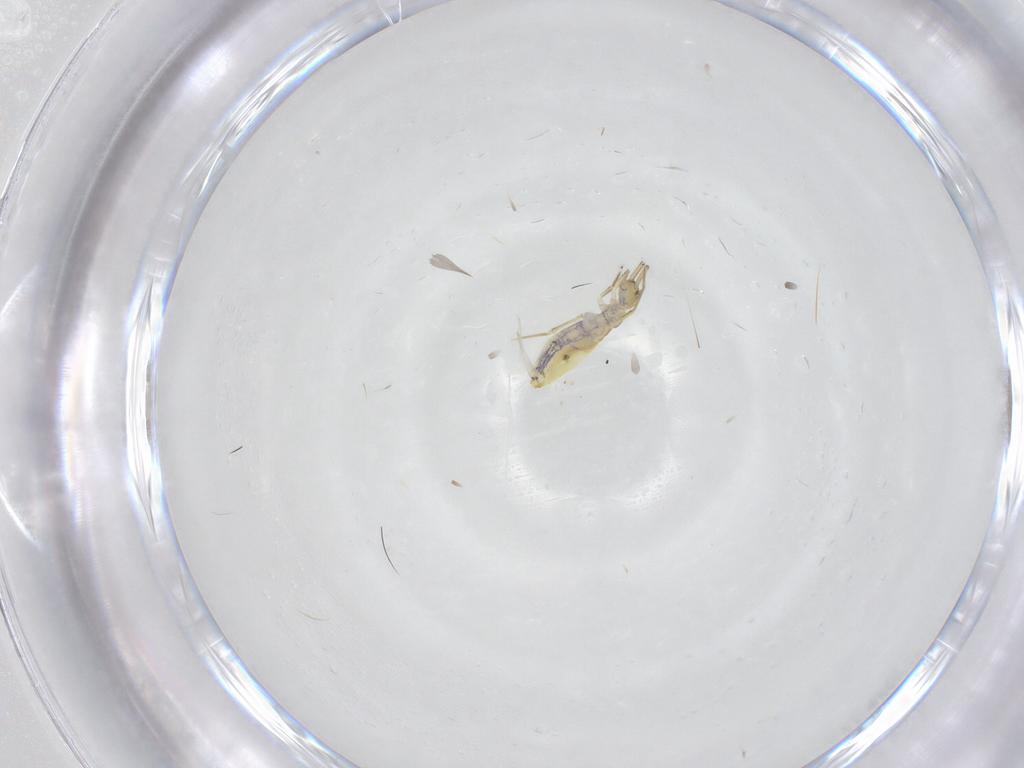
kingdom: Animalia
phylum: Arthropoda
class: Collembola
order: Entomobryomorpha
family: Entomobryidae
